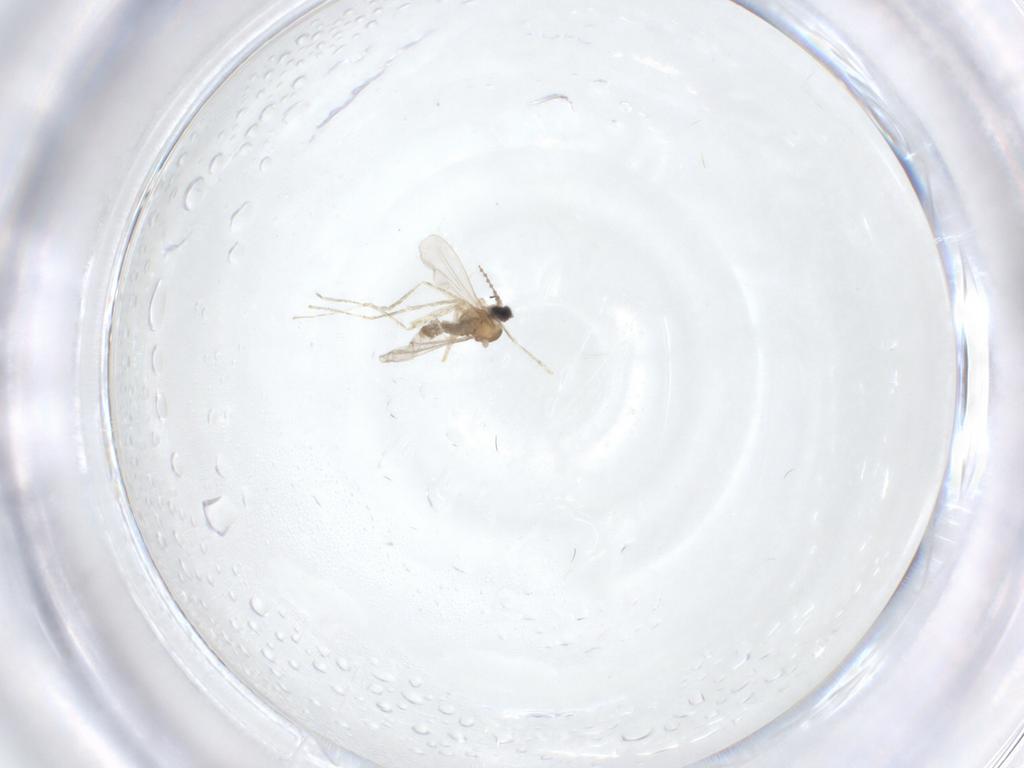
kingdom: Animalia
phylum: Arthropoda
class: Insecta
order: Diptera
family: Cecidomyiidae
